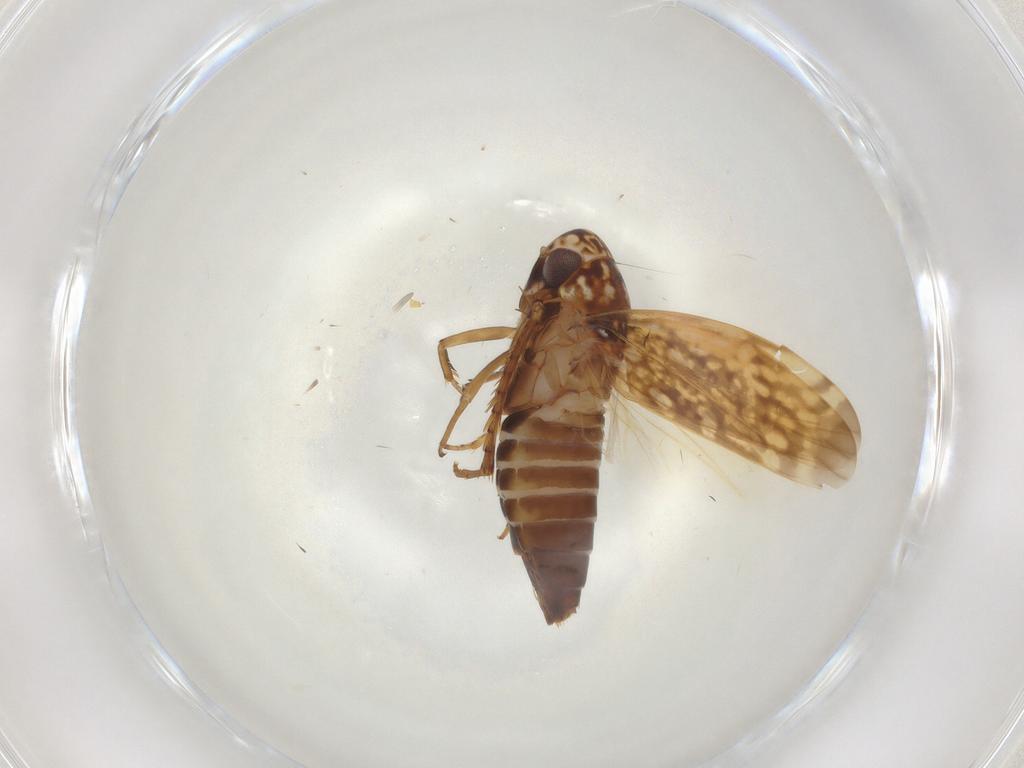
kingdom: Animalia
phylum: Arthropoda
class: Insecta
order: Hemiptera
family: Cicadellidae
